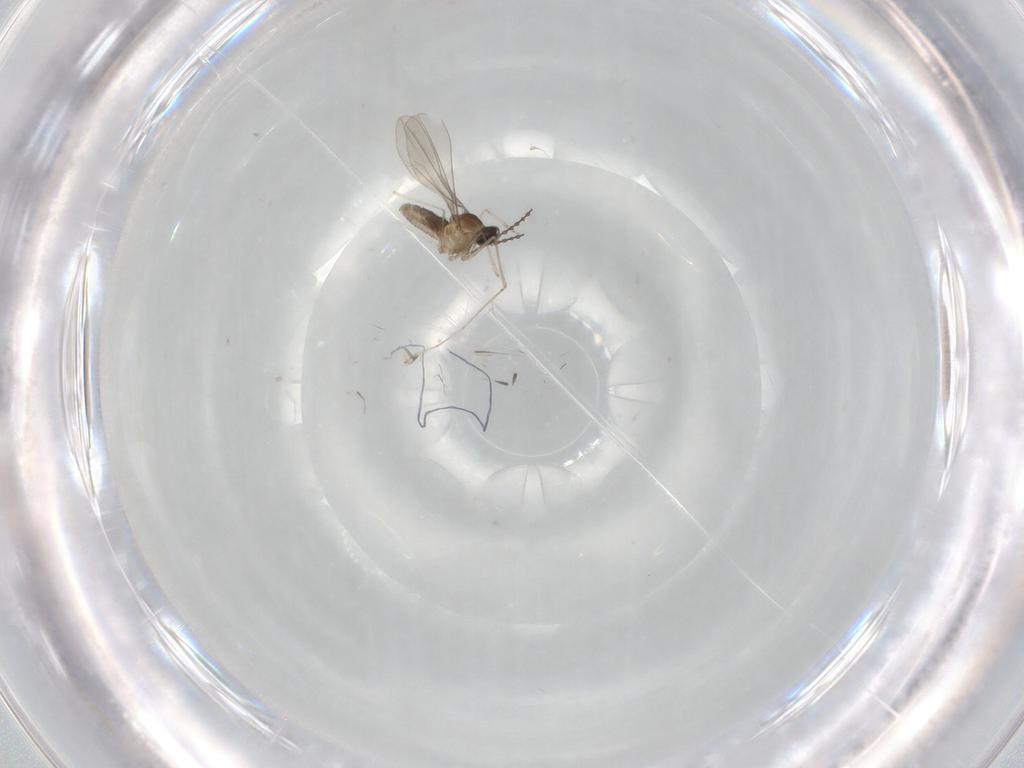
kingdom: Animalia
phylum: Arthropoda
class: Insecta
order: Diptera
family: Cecidomyiidae
